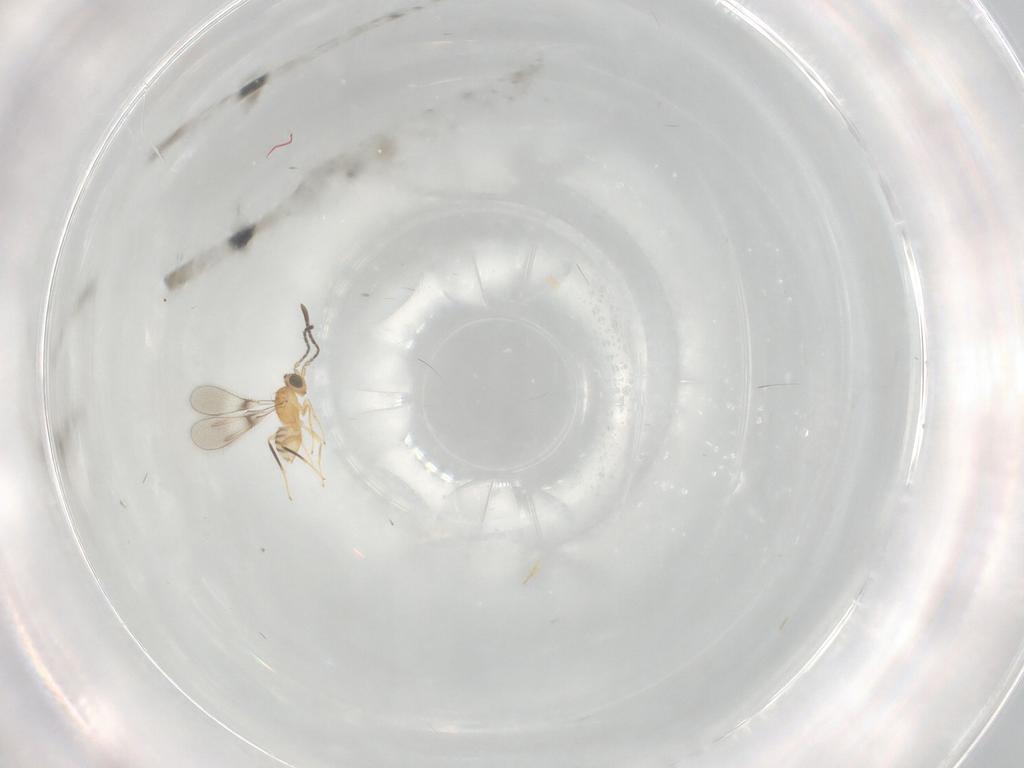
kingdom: Animalia
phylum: Arthropoda
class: Insecta
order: Hymenoptera
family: Mymaridae
